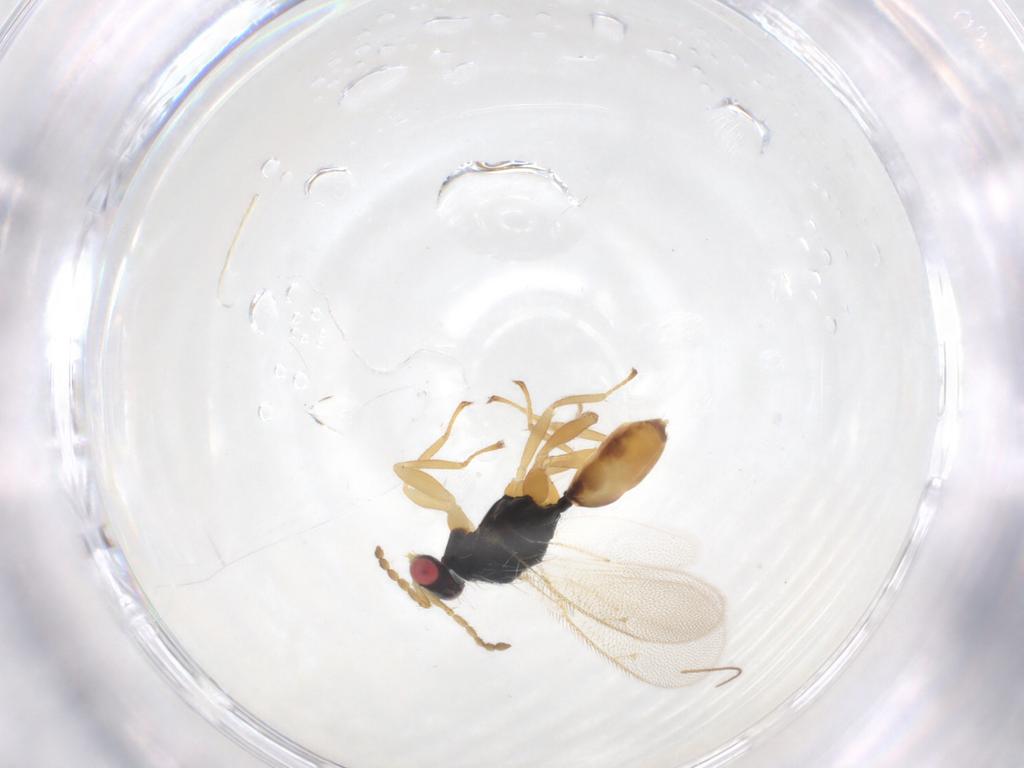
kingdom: Animalia
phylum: Arthropoda
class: Insecta
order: Hymenoptera
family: Eulophidae
